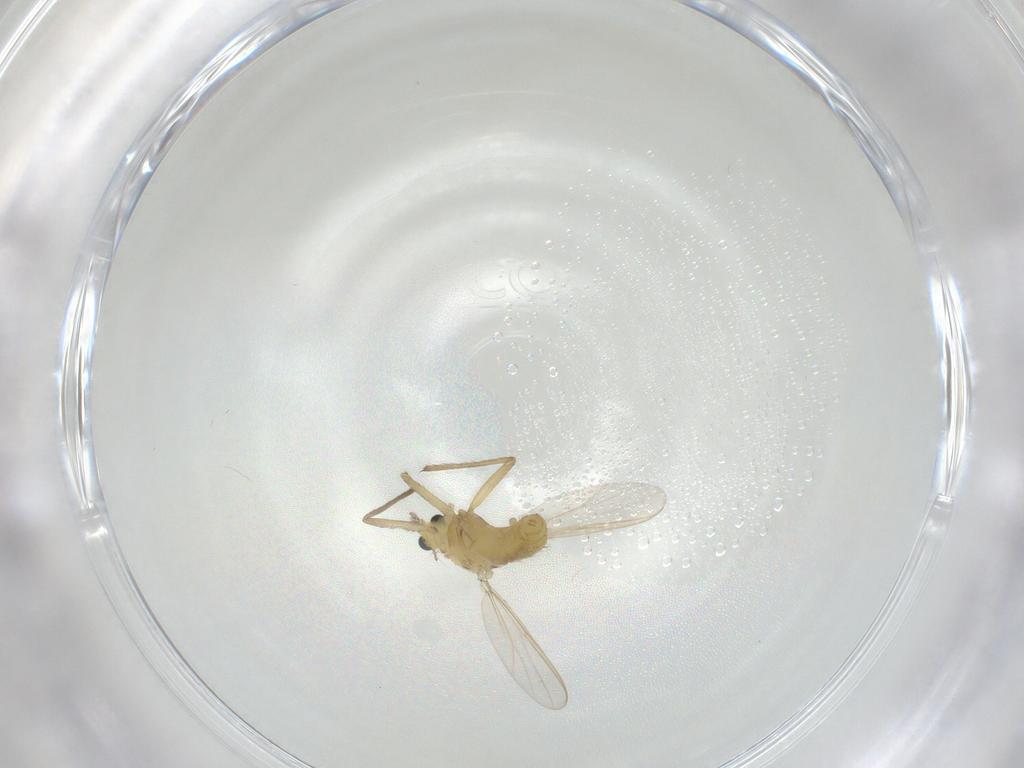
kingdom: Animalia
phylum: Arthropoda
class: Insecta
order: Diptera
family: Chironomidae
